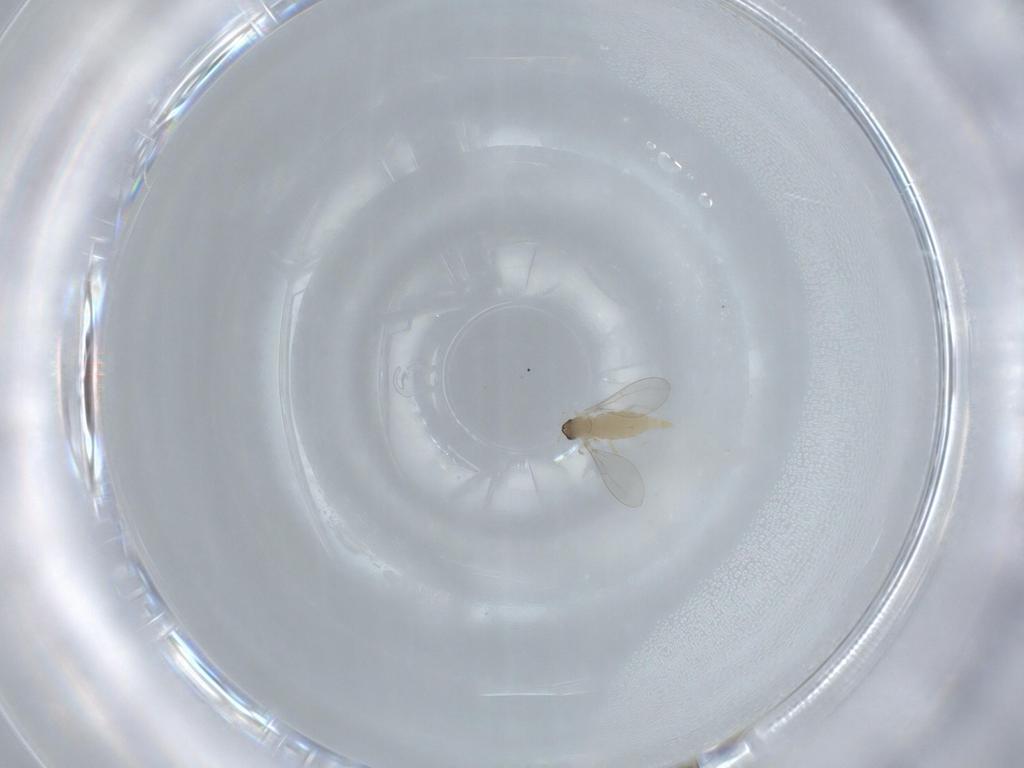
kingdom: Animalia
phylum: Arthropoda
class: Insecta
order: Diptera
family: Cecidomyiidae
